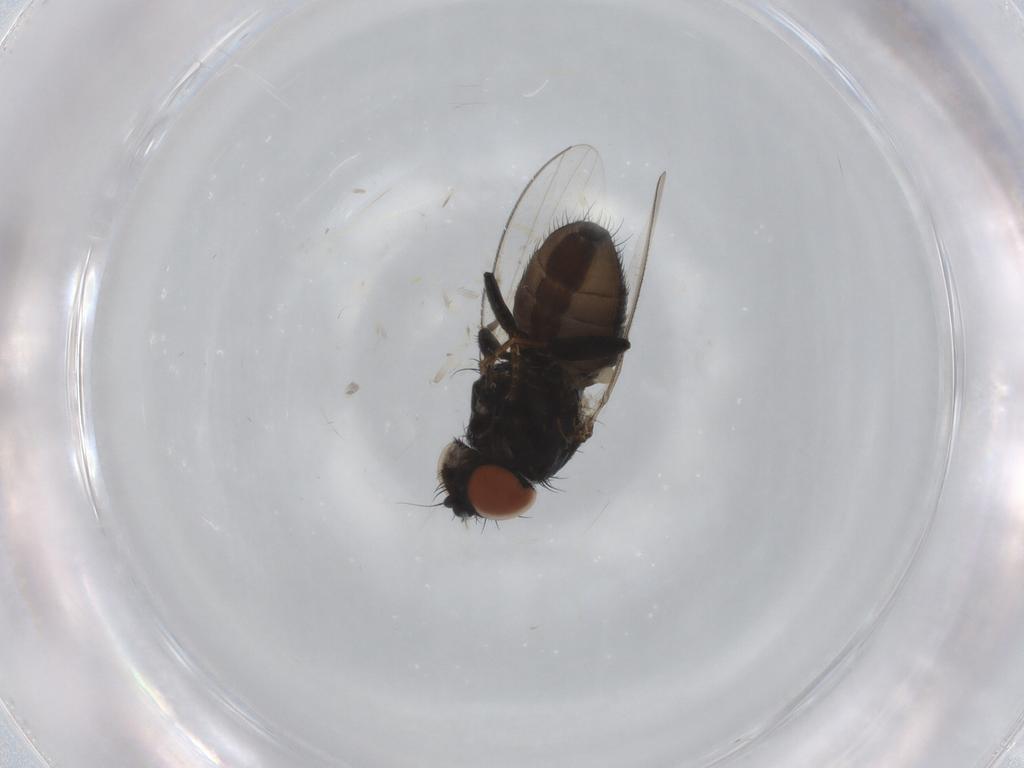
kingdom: Animalia
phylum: Arthropoda
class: Insecta
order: Diptera
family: Milichiidae
